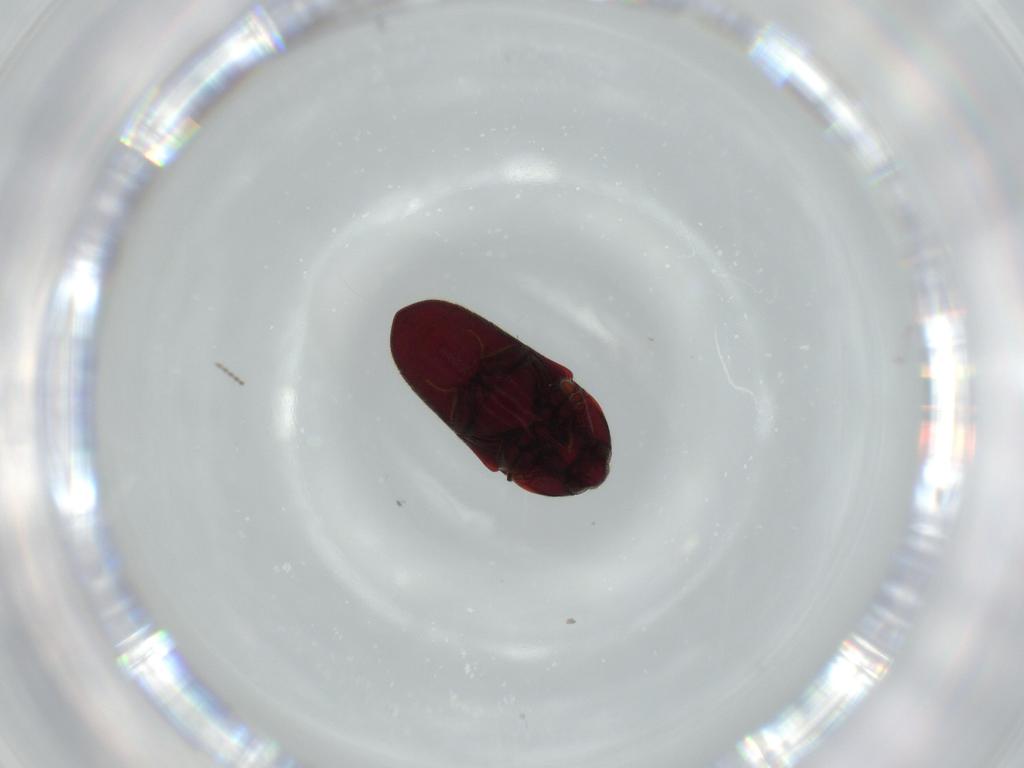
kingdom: Animalia
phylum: Arthropoda
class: Insecta
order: Coleoptera
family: Throscidae
